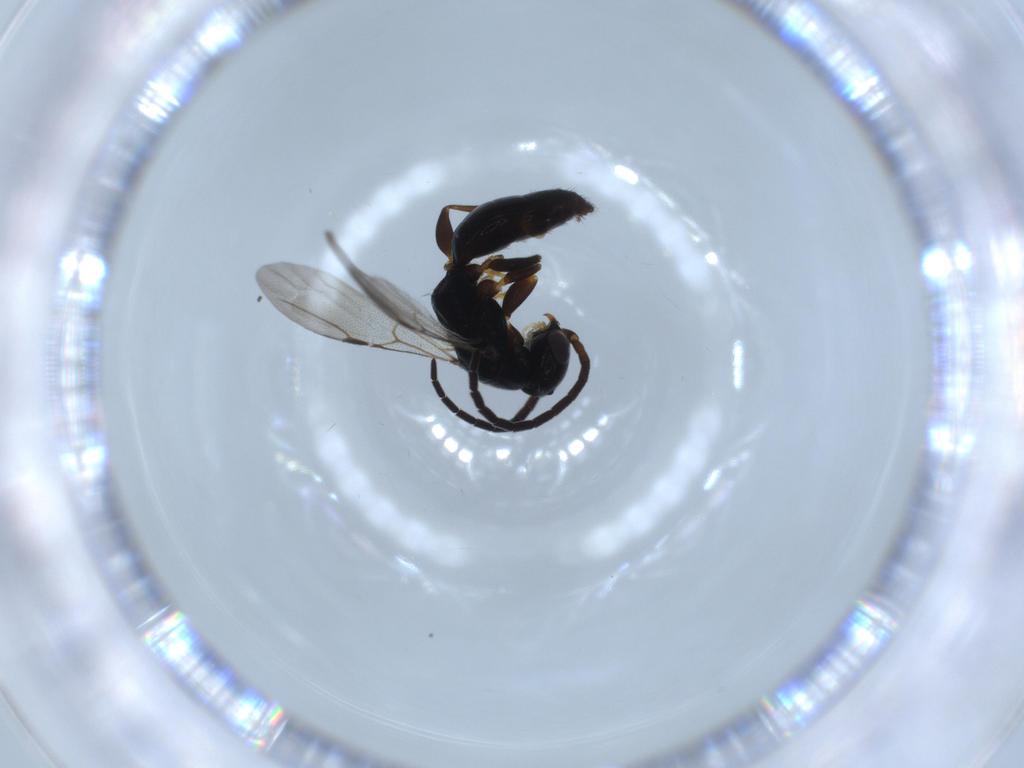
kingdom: Animalia
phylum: Arthropoda
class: Insecta
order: Hymenoptera
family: Bethylidae
